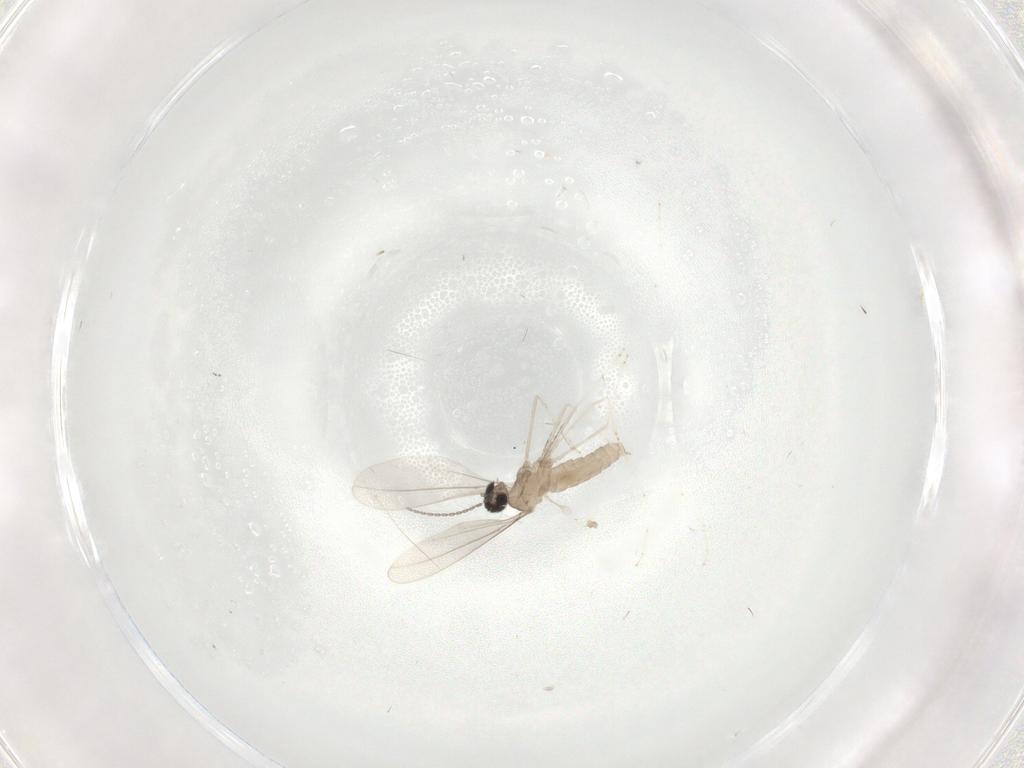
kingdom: Animalia
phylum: Arthropoda
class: Insecta
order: Diptera
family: Cecidomyiidae
